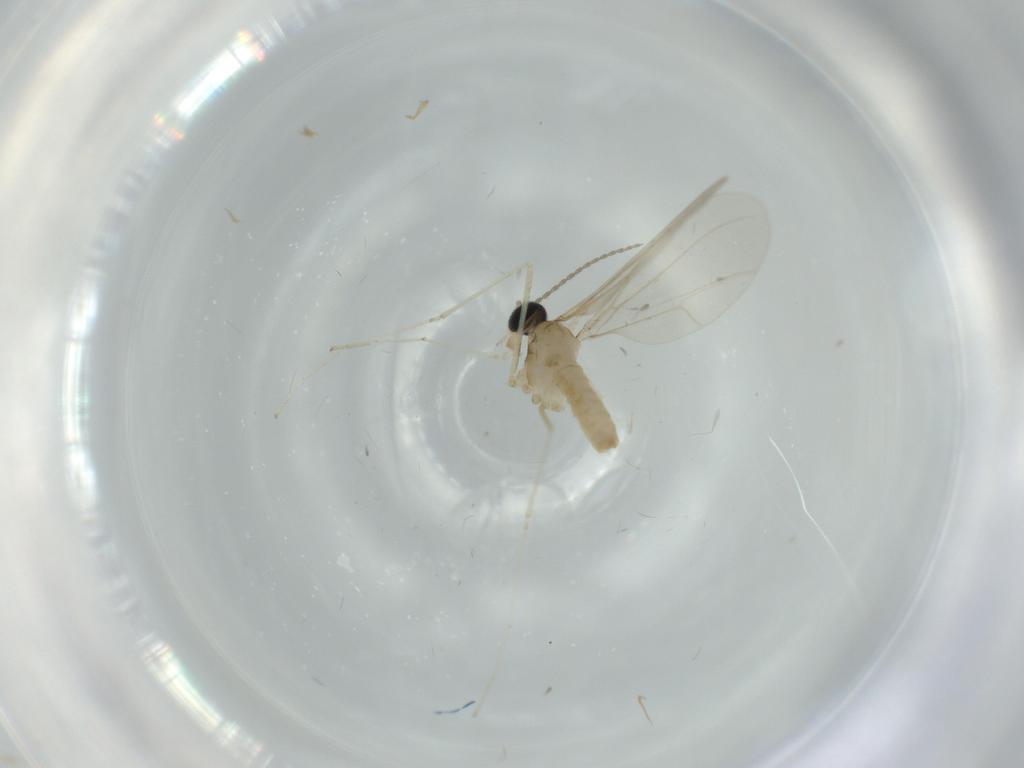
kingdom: Animalia
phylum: Arthropoda
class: Insecta
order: Diptera
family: Cecidomyiidae
